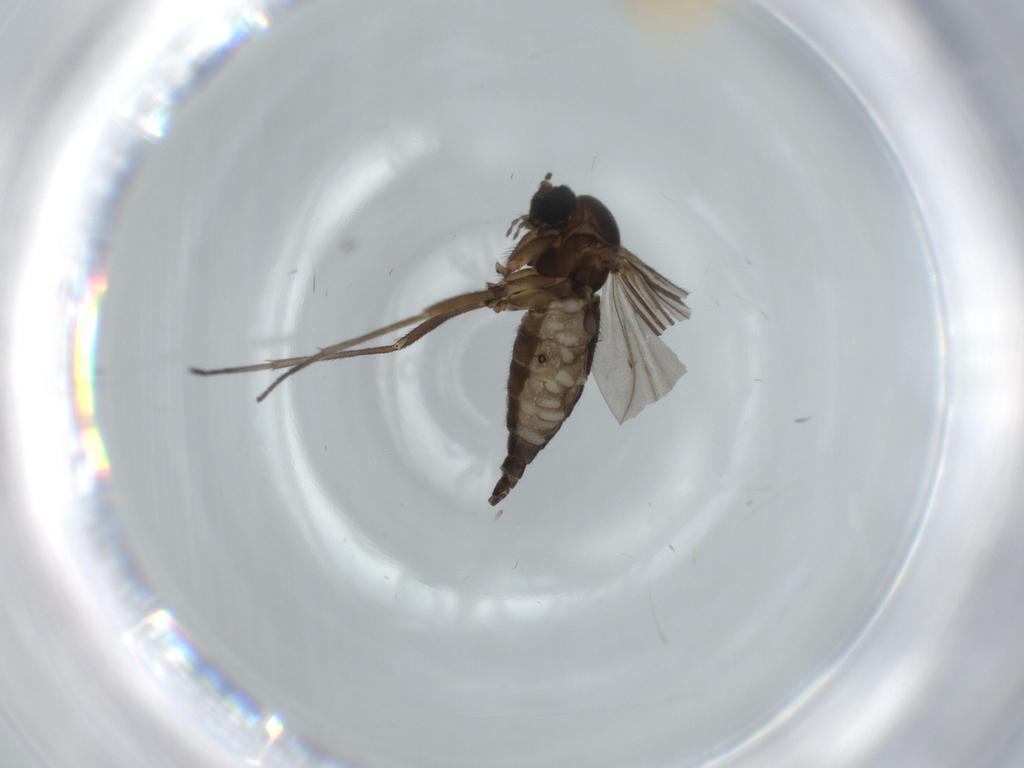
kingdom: Animalia
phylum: Arthropoda
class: Insecta
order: Diptera
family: Sciaridae
